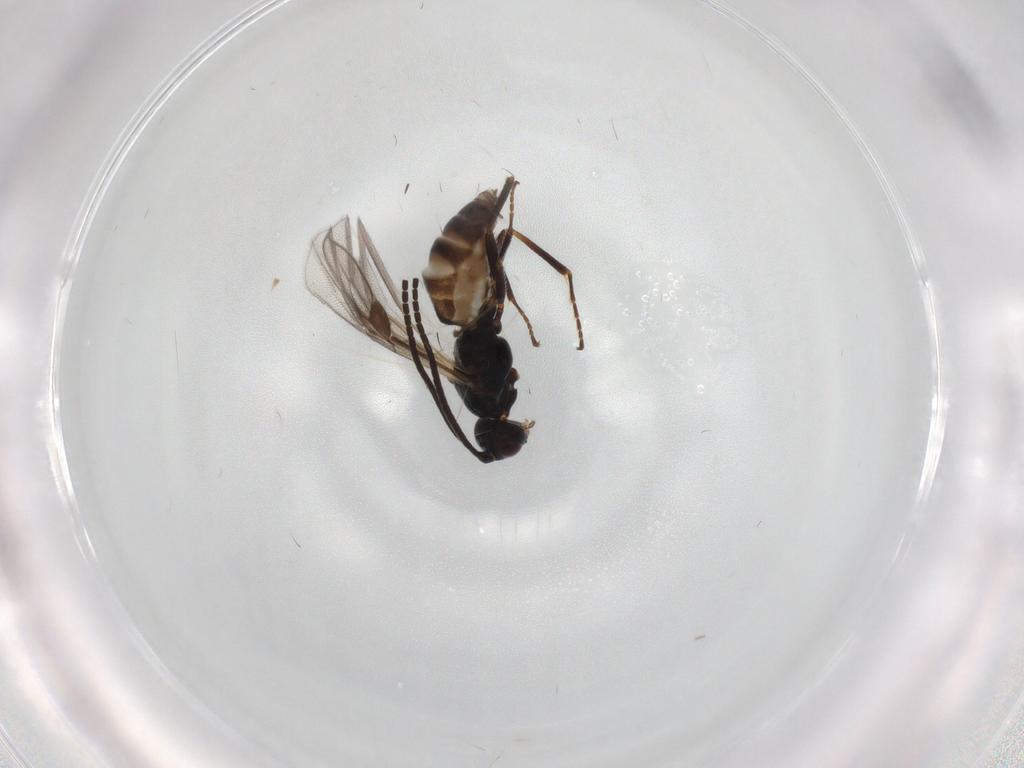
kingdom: Animalia
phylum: Arthropoda
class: Insecta
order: Hymenoptera
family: Braconidae
